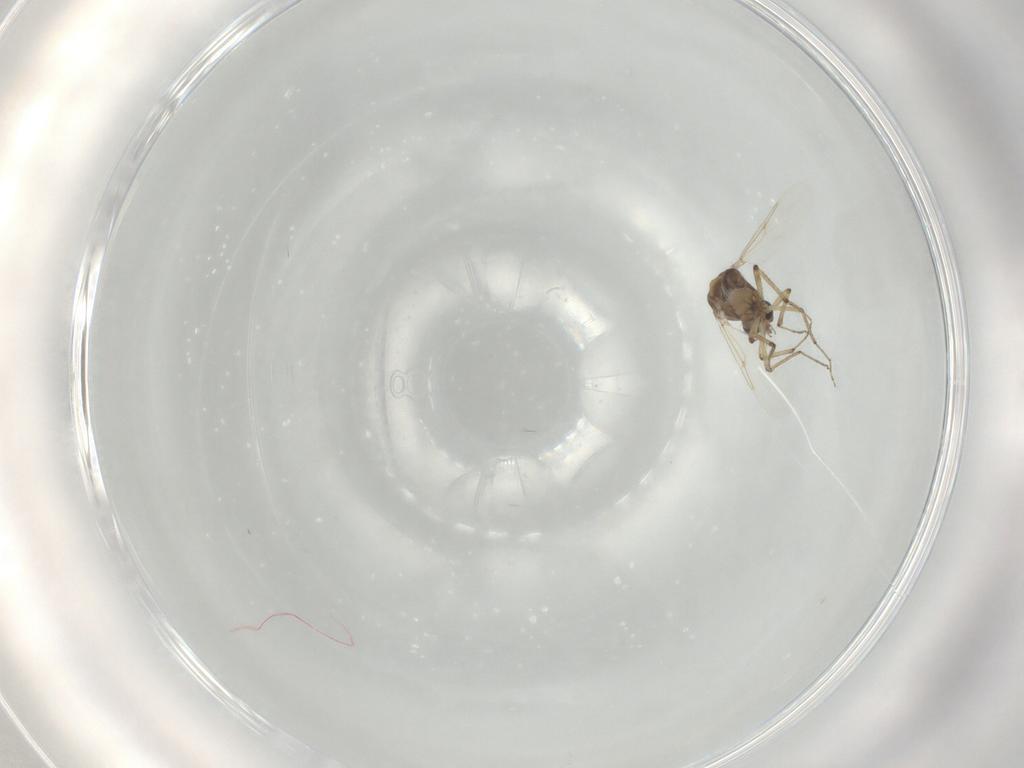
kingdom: Animalia
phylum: Arthropoda
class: Insecta
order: Diptera
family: Ceratopogonidae
